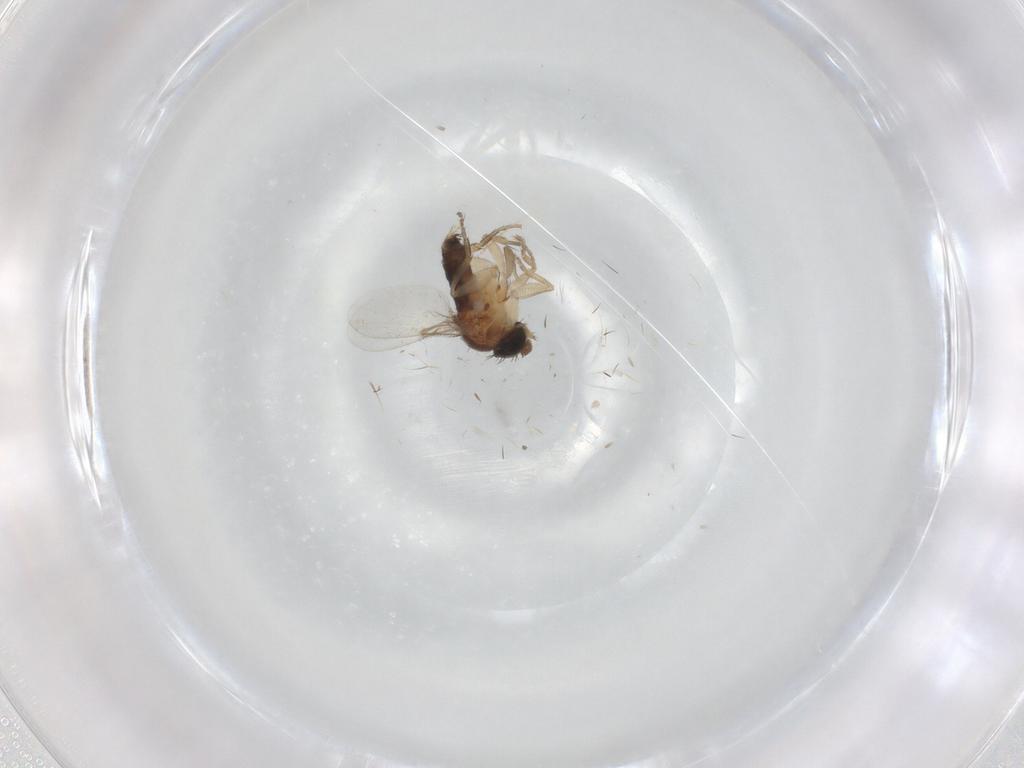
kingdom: Animalia
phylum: Arthropoda
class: Insecta
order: Diptera
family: Phoridae
